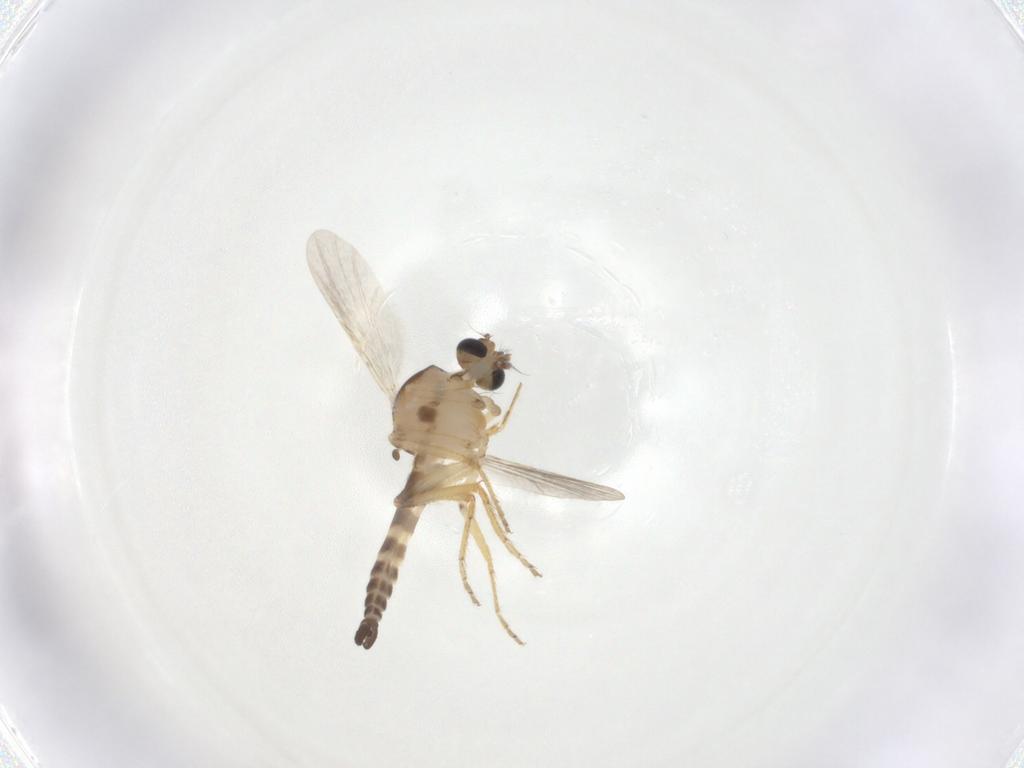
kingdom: Animalia
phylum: Arthropoda
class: Insecta
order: Diptera
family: Ceratopogonidae
